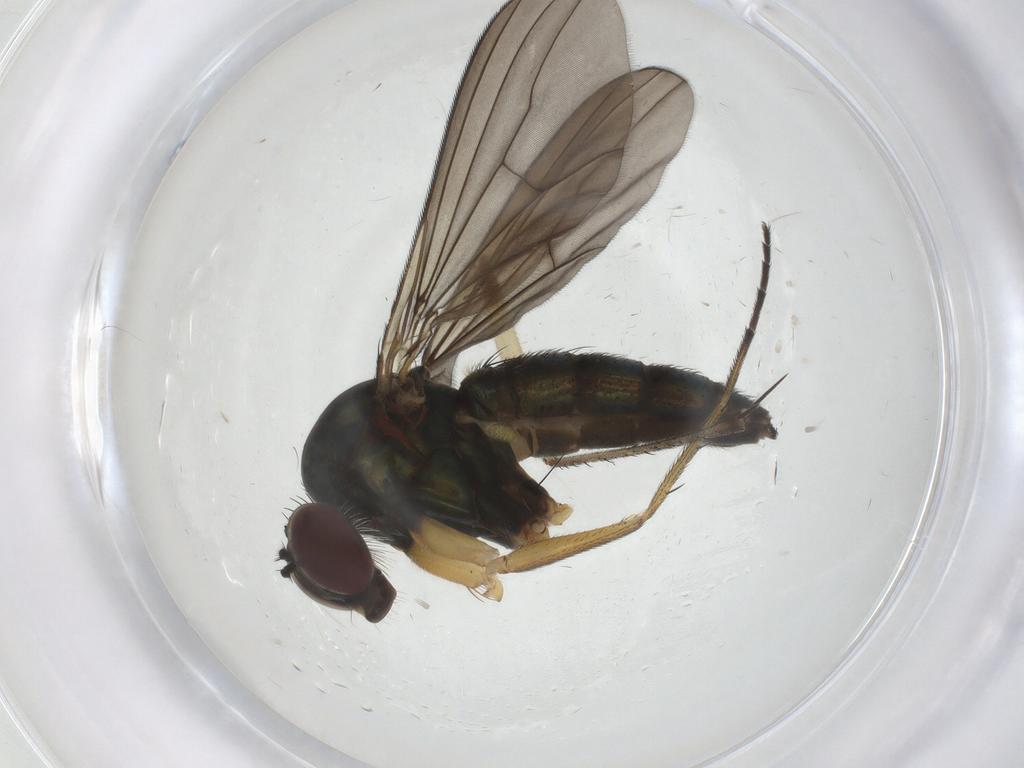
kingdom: Animalia
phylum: Arthropoda
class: Insecta
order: Diptera
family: Dolichopodidae
